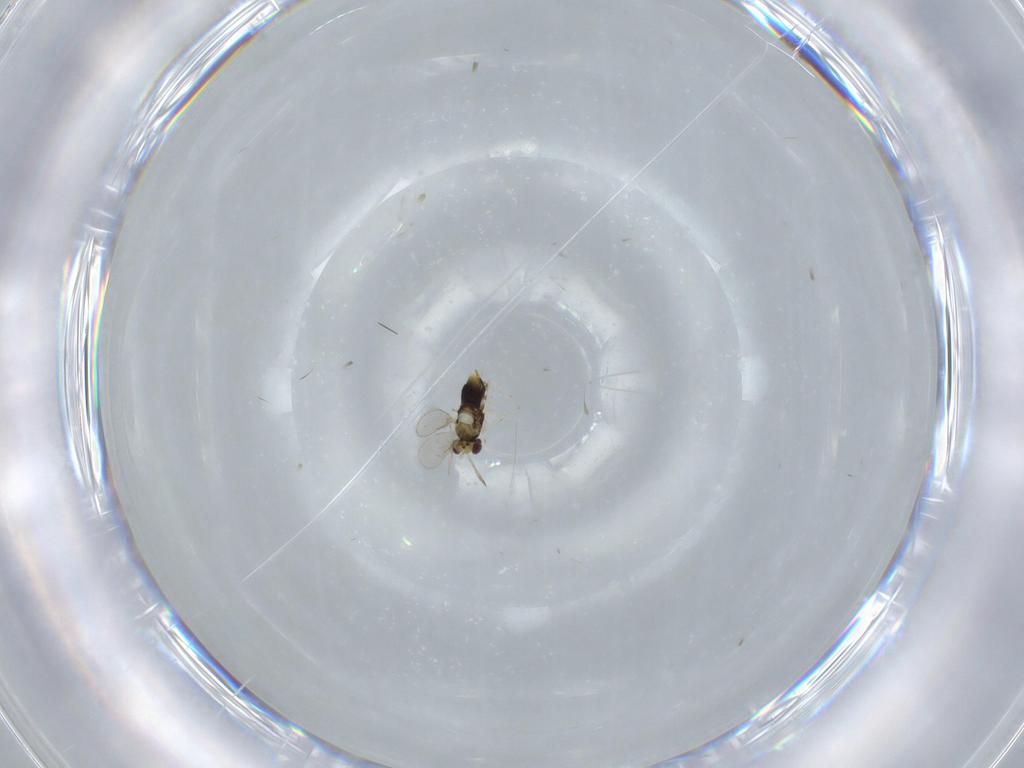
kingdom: Animalia
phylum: Arthropoda
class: Insecta
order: Hymenoptera
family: Aphelinidae
